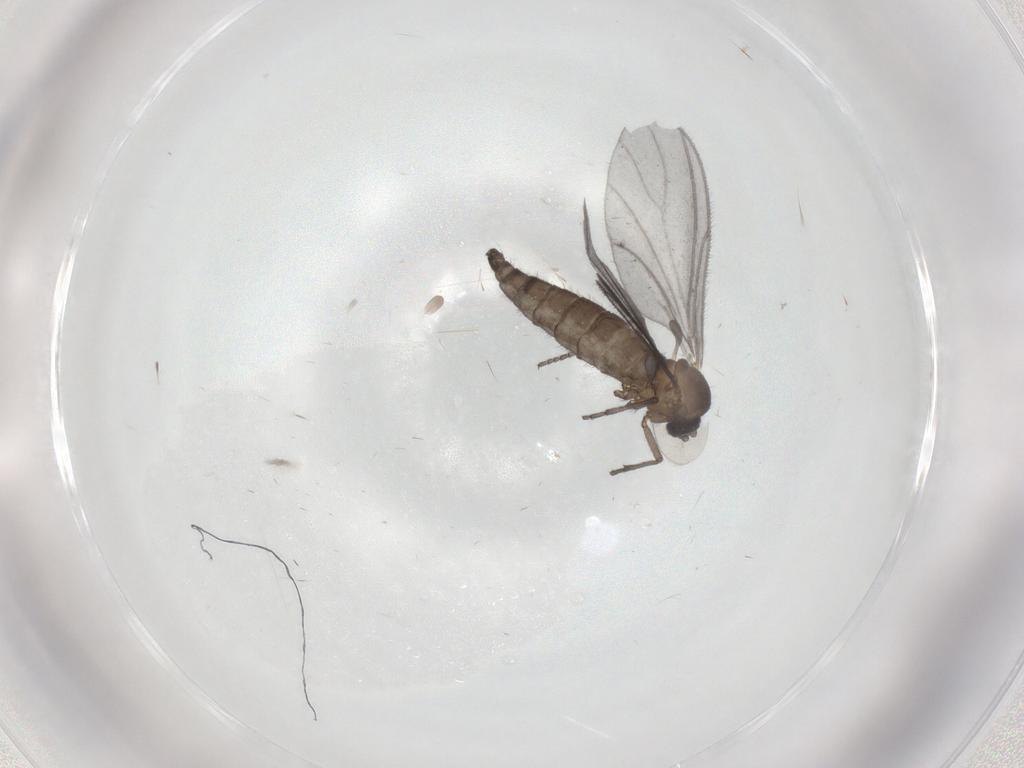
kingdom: Animalia
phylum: Arthropoda
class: Insecta
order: Diptera
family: Sciaridae
